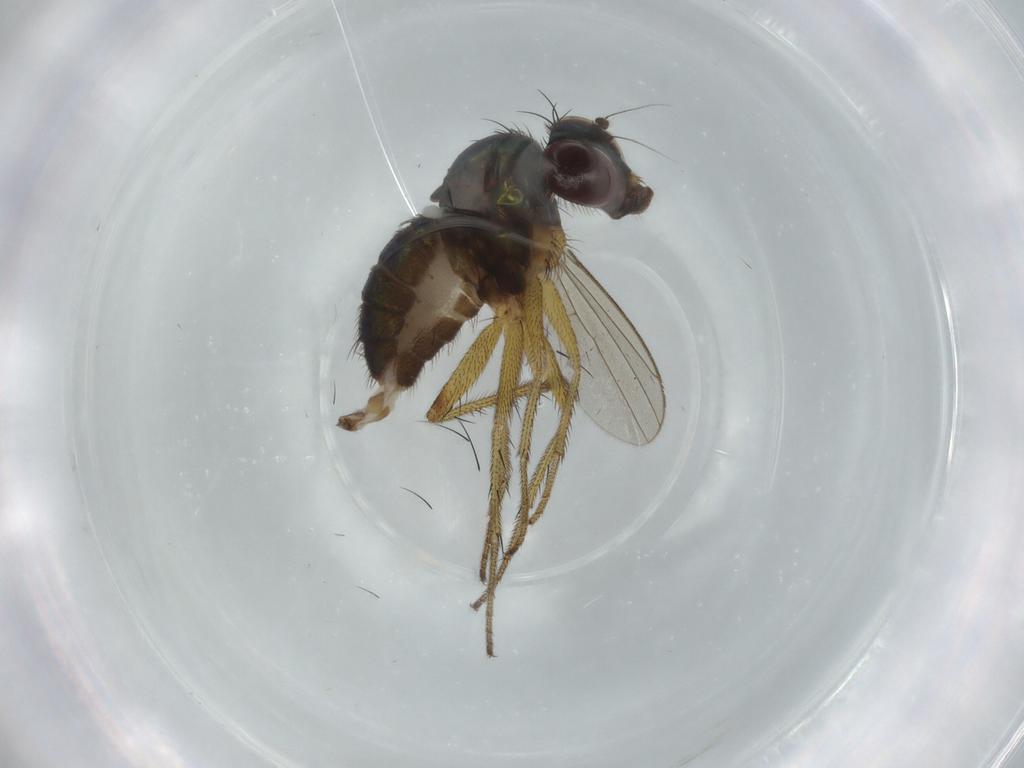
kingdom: Animalia
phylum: Arthropoda
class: Insecta
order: Diptera
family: Dolichopodidae
